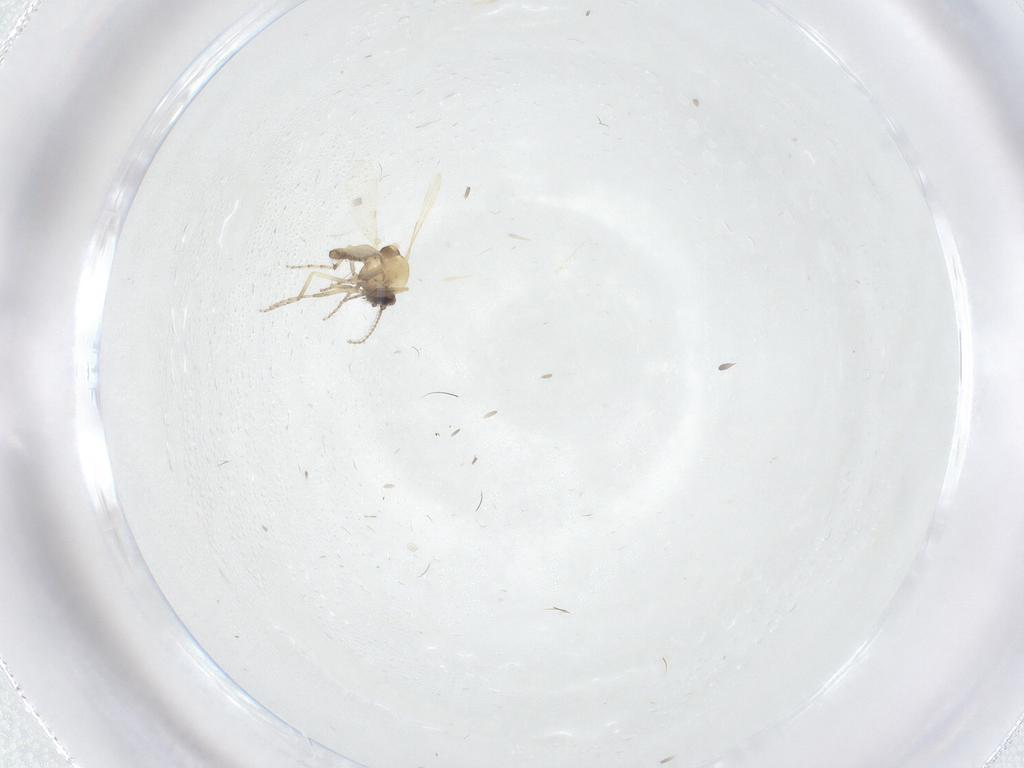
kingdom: Animalia
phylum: Arthropoda
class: Insecta
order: Diptera
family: Ceratopogonidae
